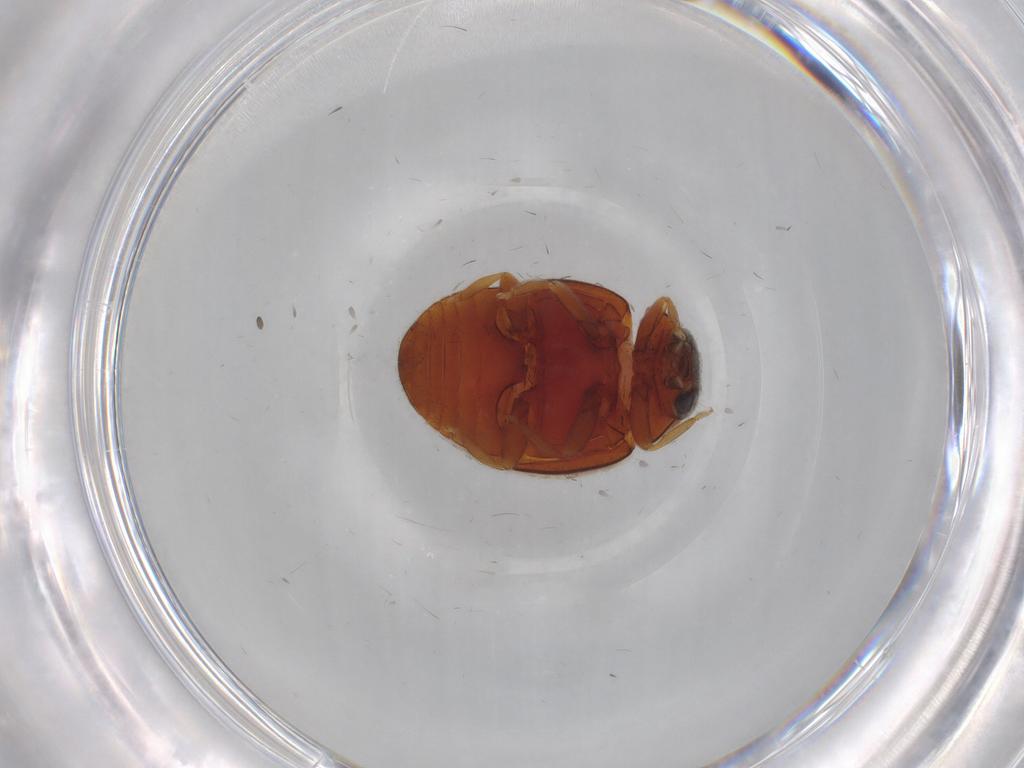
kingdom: Animalia
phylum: Arthropoda
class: Insecta
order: Coleoptera
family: Coccinellidae
